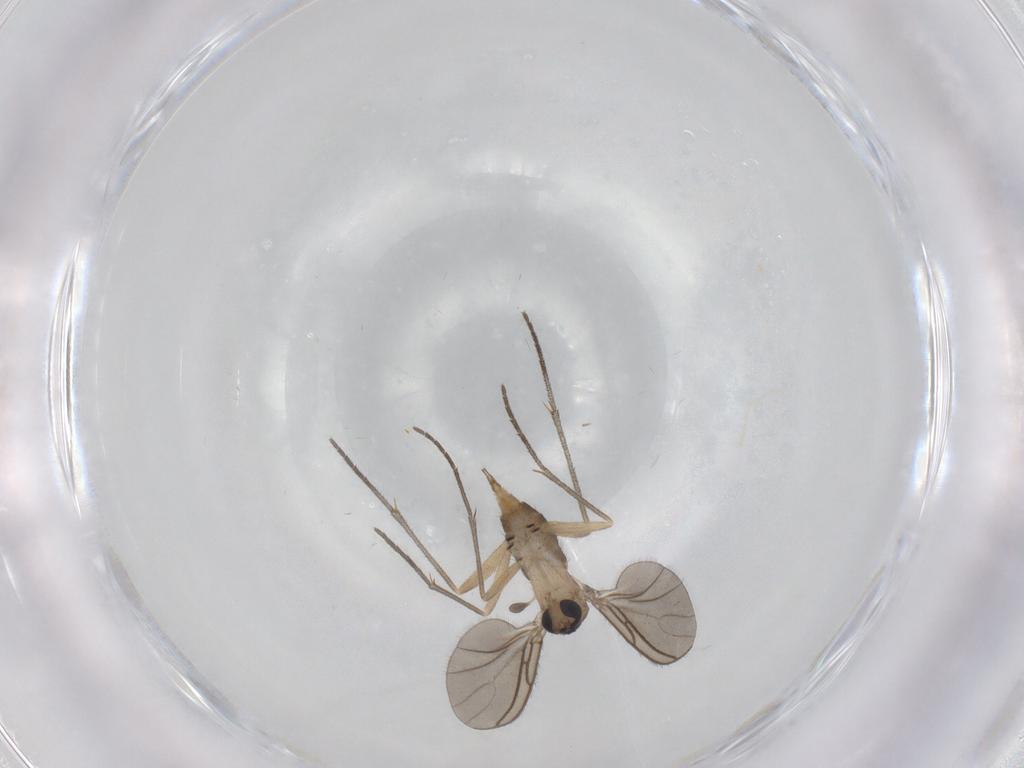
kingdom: Animalia
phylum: Arthropoda
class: Insecta
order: Diptera
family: Sciaridae
